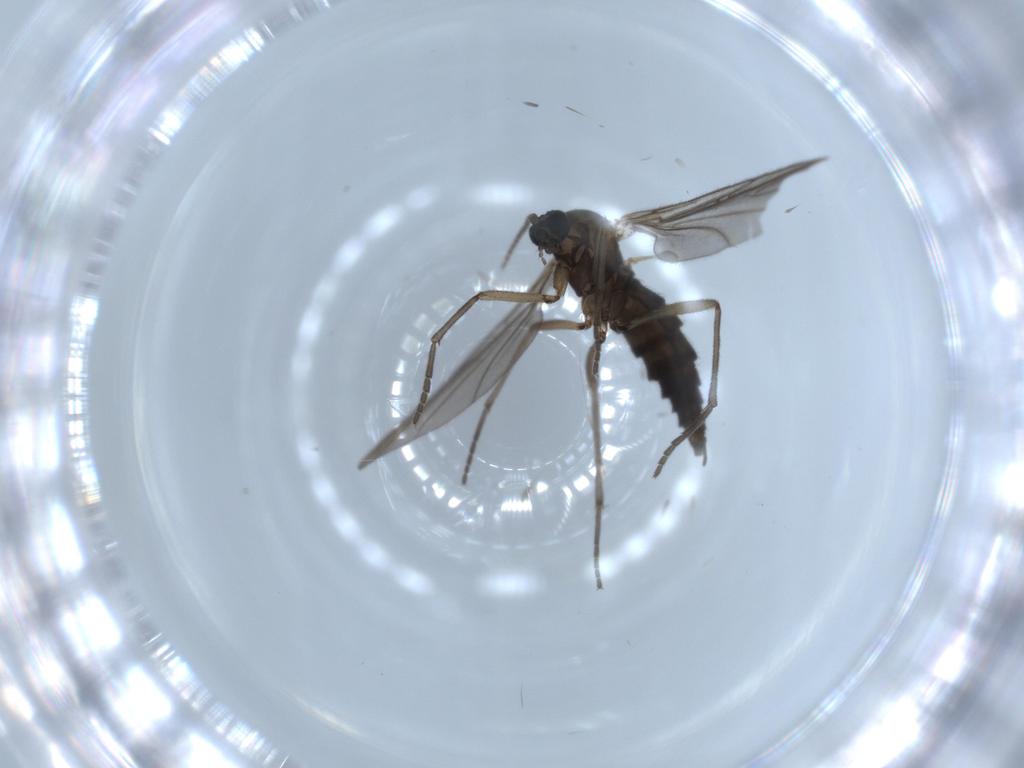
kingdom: Animalia
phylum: Arthropoda
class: Insecta
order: Diptera
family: Sciaridae
